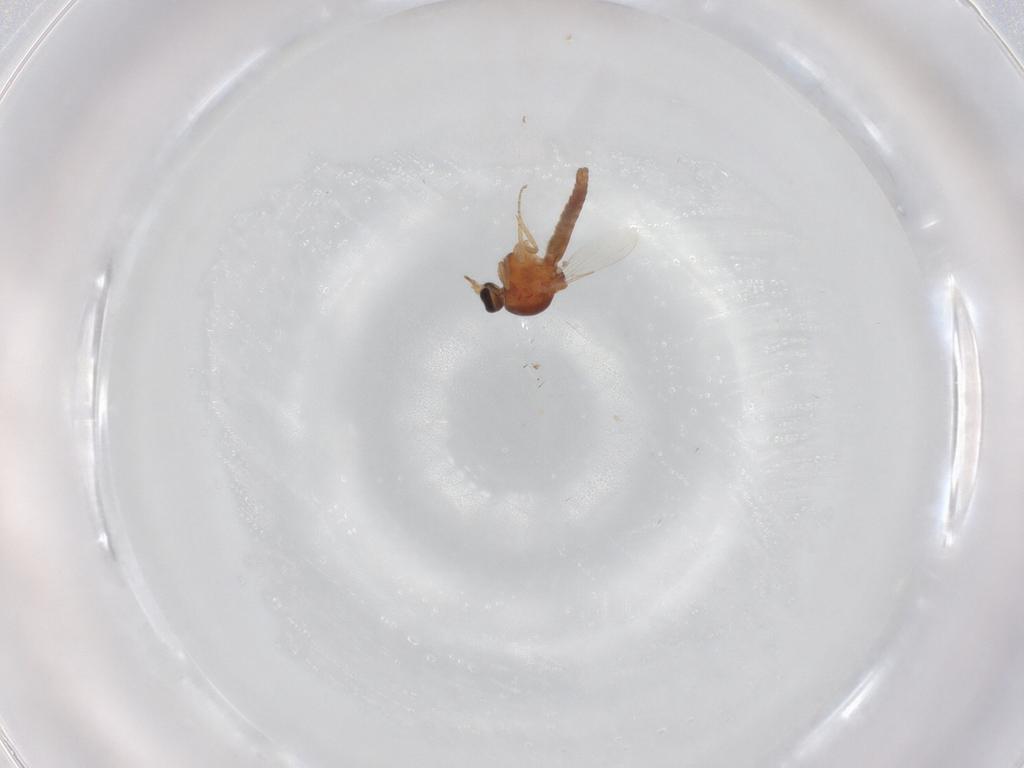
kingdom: Animalia
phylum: Arthropoda
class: Insecta
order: Diptera
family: Ceratopogonidae
